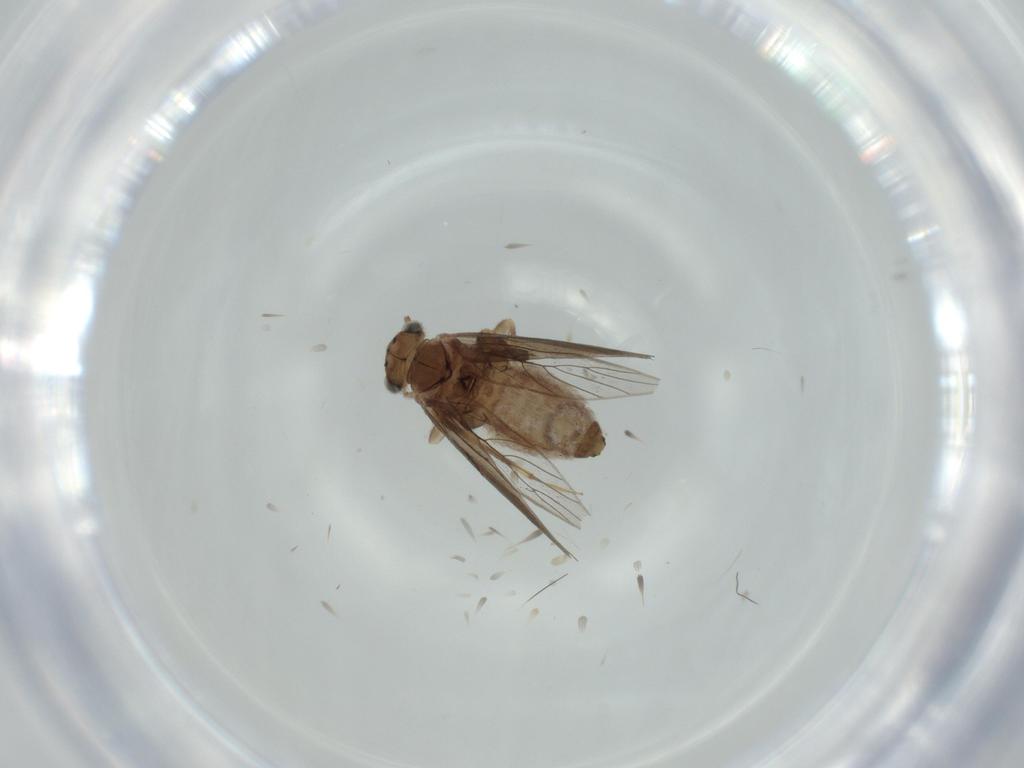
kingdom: Animalia
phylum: Arthropoda
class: Insecta
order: Psocodea
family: Lepidopsocidae
